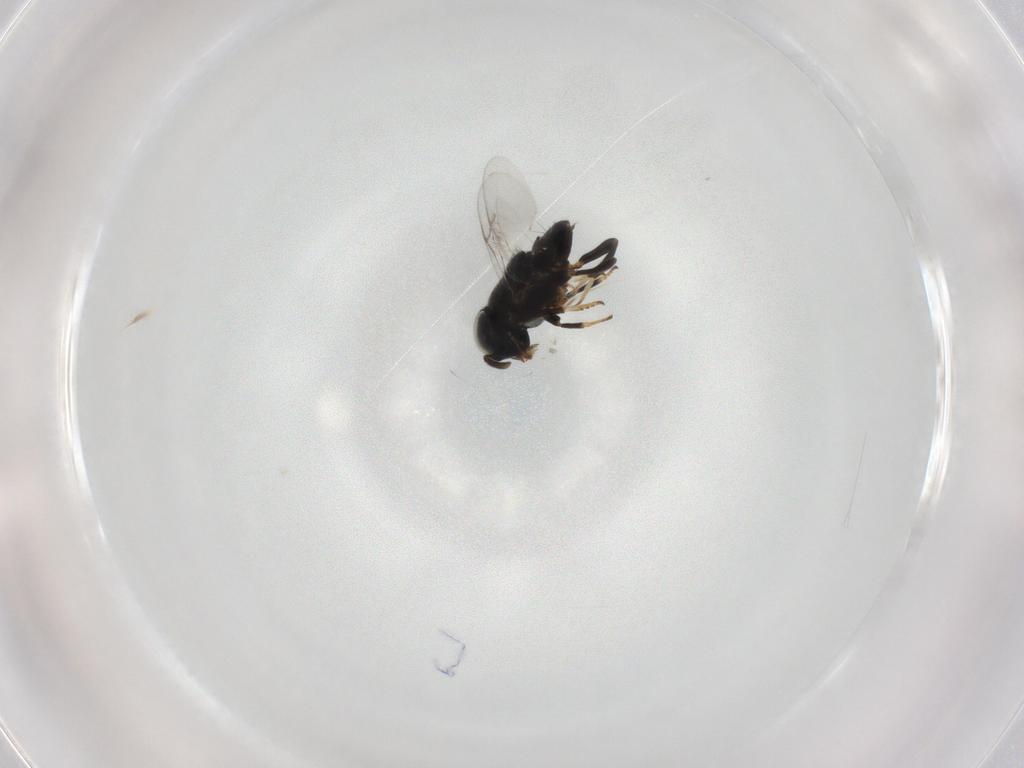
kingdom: Animalia
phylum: Arthropoda
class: Insecta
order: Hymenoptera
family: Encyrtidae
